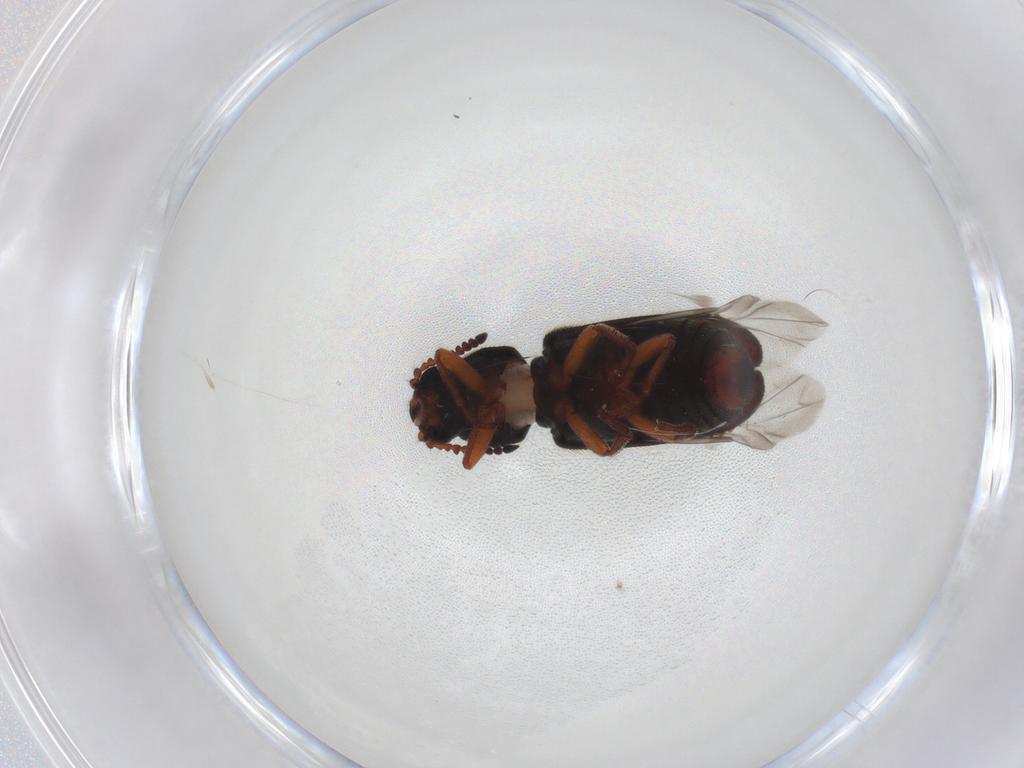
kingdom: Animalia
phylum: Arthropoda
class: Insecta
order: Coleoptera
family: Melyridae
